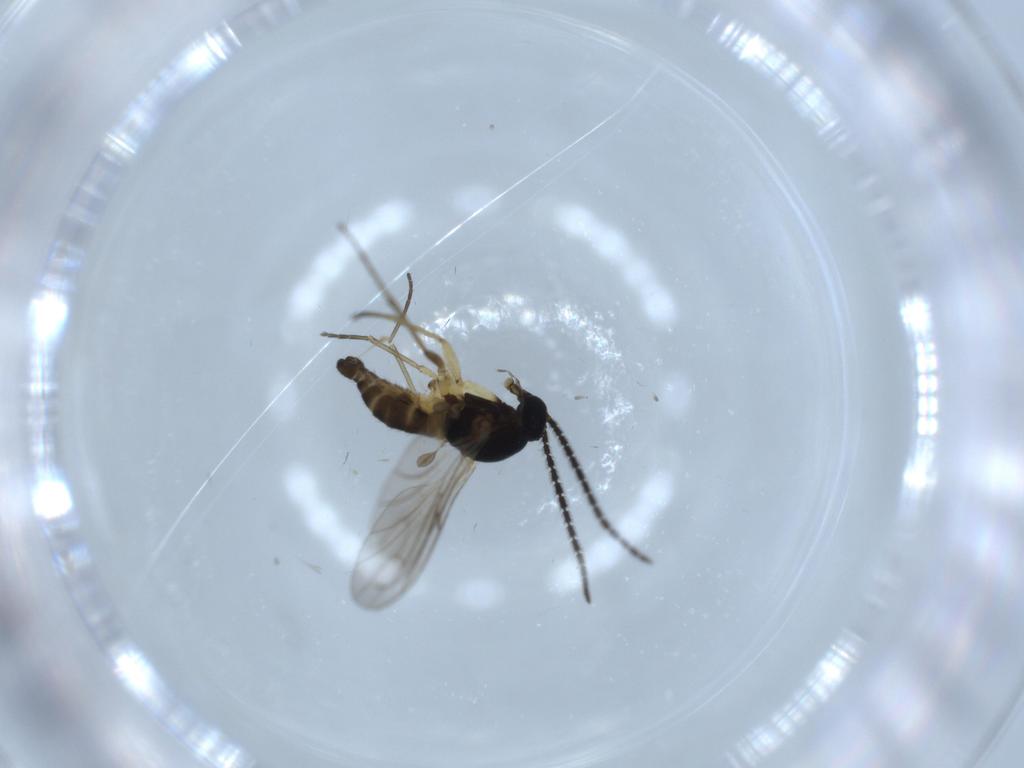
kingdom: Animalia
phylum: Arthropoda
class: Insecta
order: Diptera
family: Sciaridae
